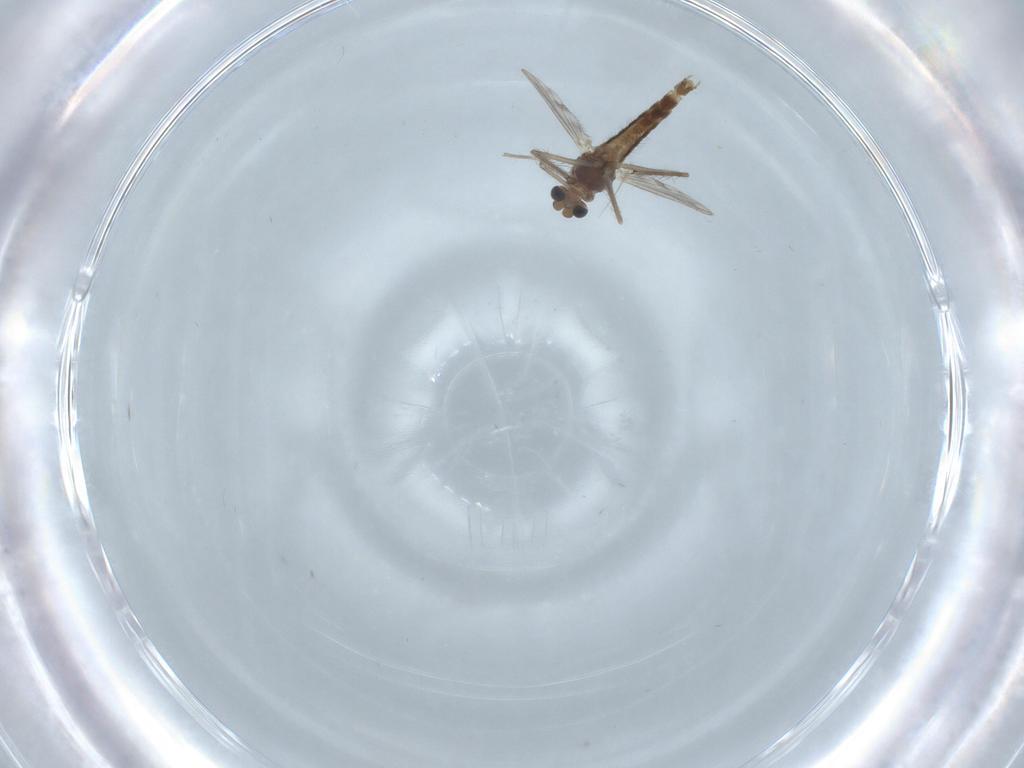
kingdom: Animalia
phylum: Arthropoda
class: Insecta
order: Diptera
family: Chironomidae
